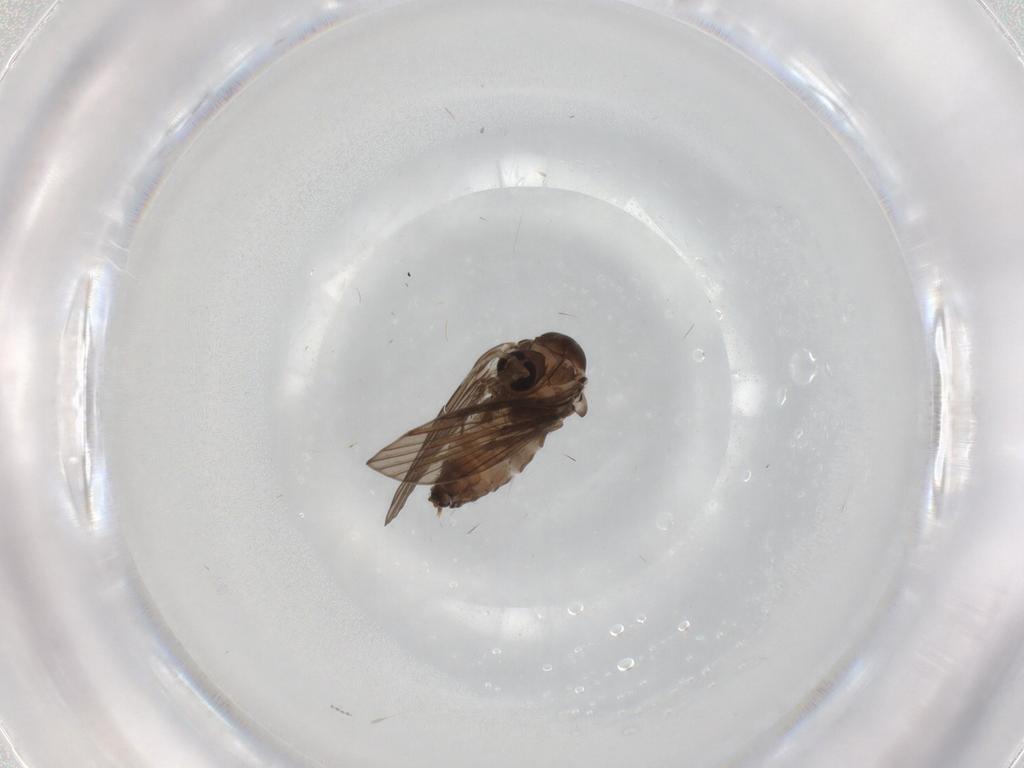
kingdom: Animalia
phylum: Arthropoda
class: Insecta
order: Diptera
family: Psychodidae
